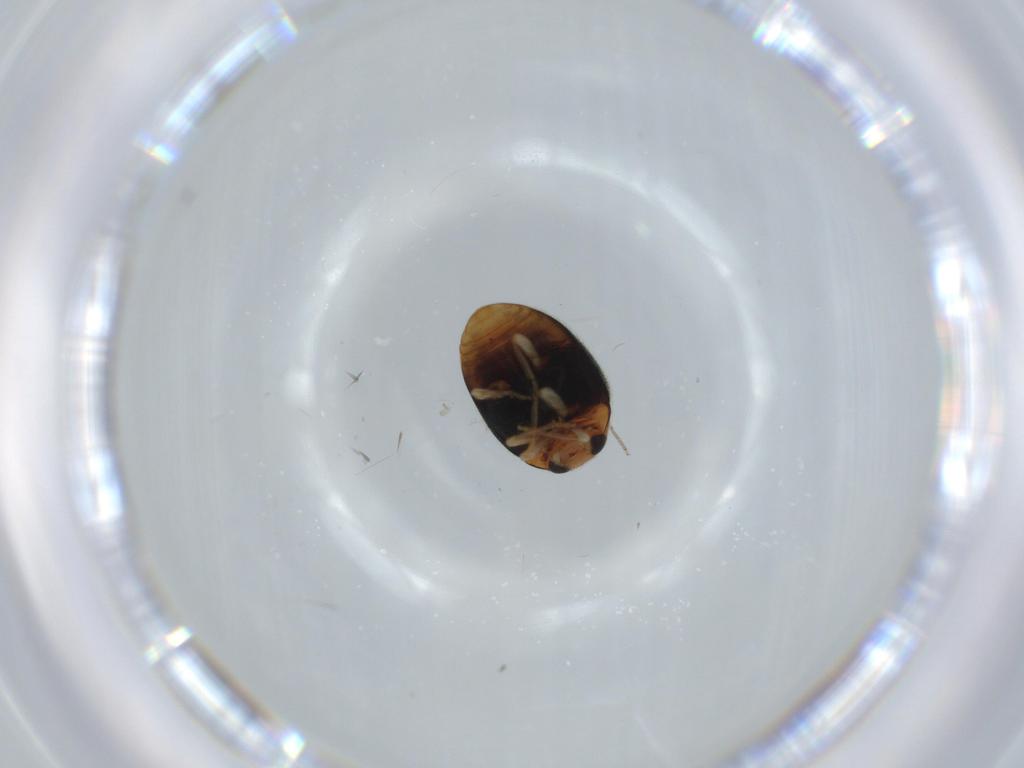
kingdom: Animalia
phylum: Arthropoda
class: Insecta
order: Coleoptera
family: Coccinellidae
